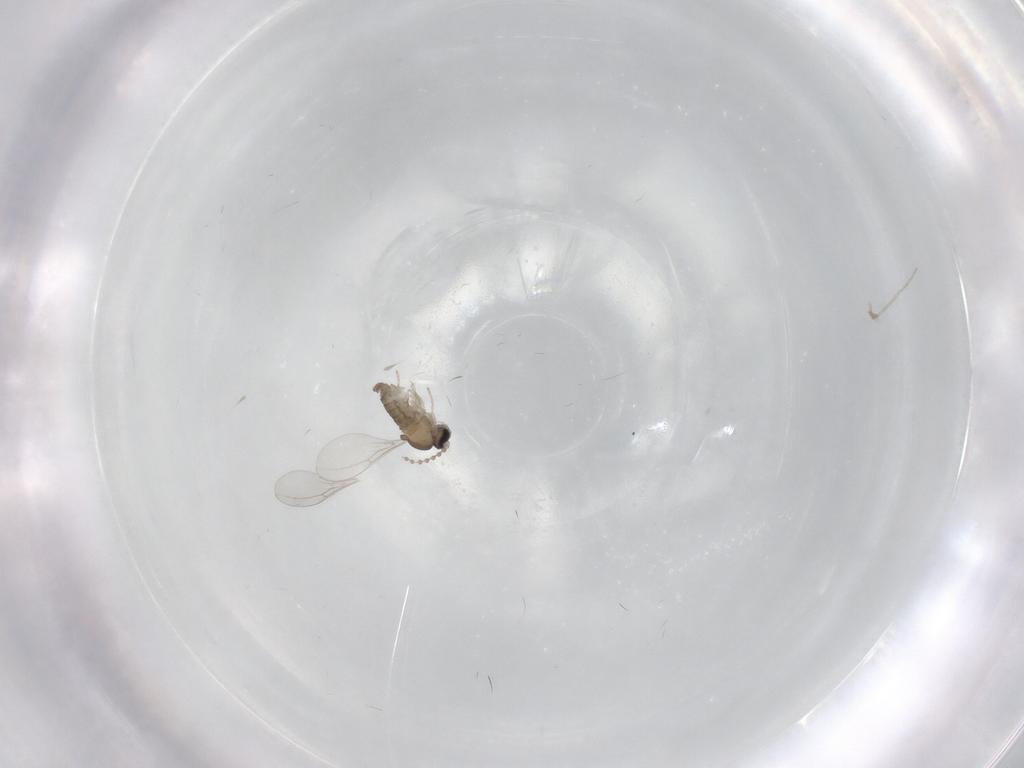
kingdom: Animalia
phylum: Arthropoda
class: Insecta
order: Diptera
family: Cecidomyiidae
